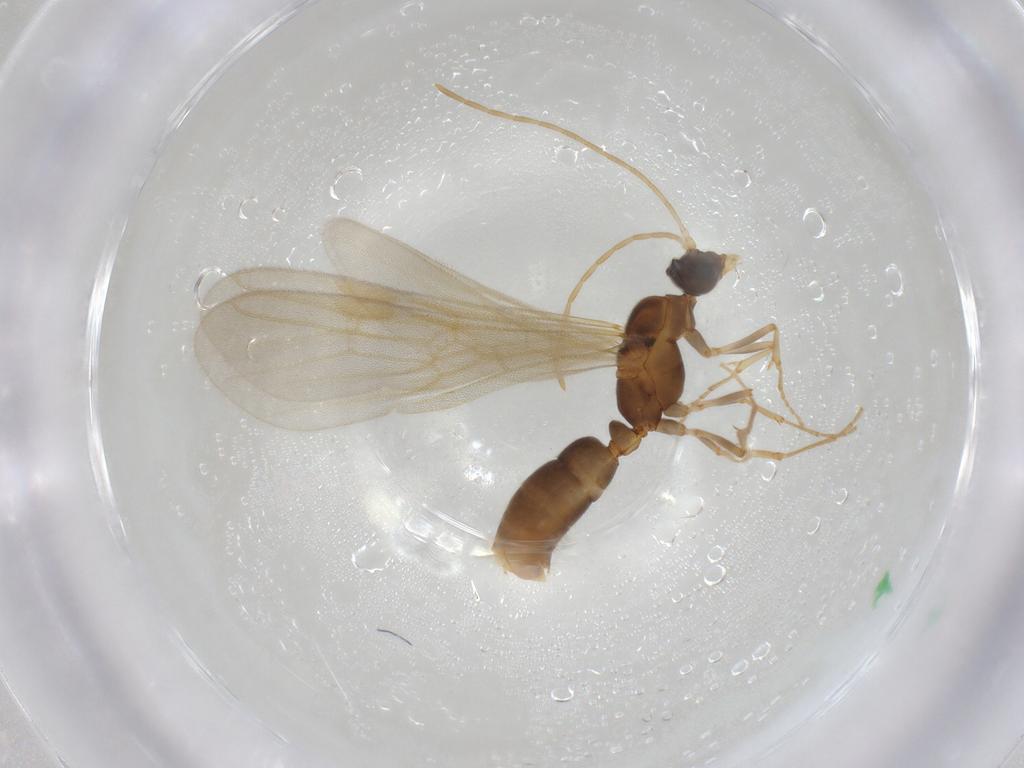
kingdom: Animalia
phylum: Arthropoda
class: Insecta
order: Hymenoptera
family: Formicidae
